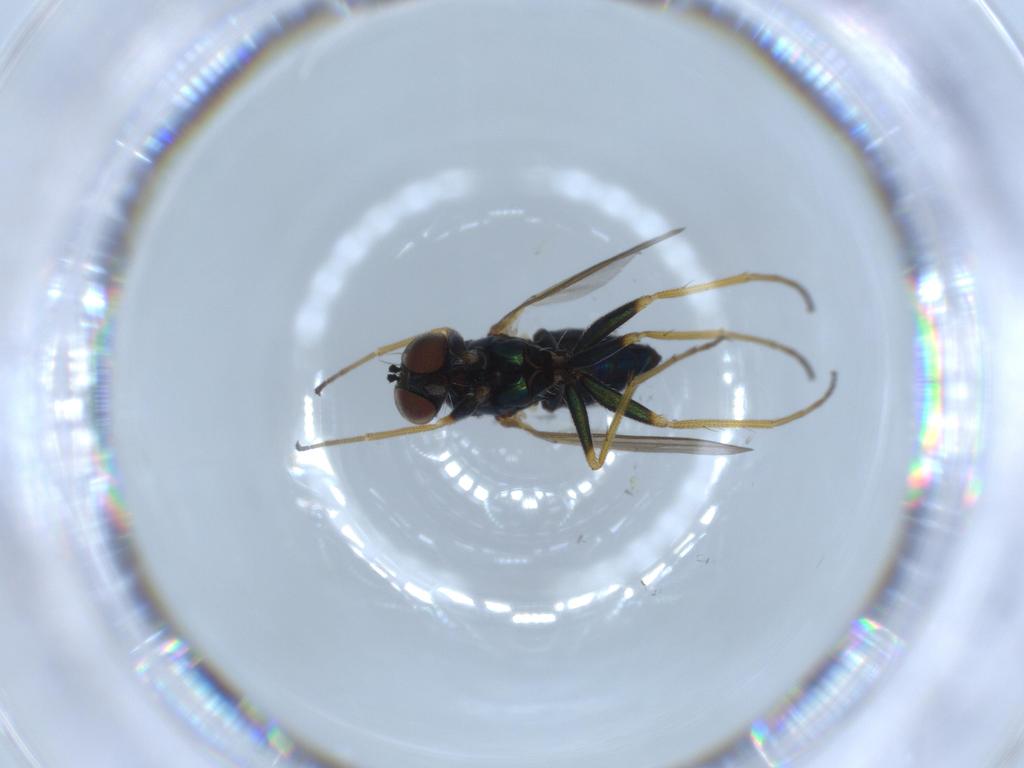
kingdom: Animalia
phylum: Arthropoda
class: Insecta
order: Diptera
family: Dolichopodidae
